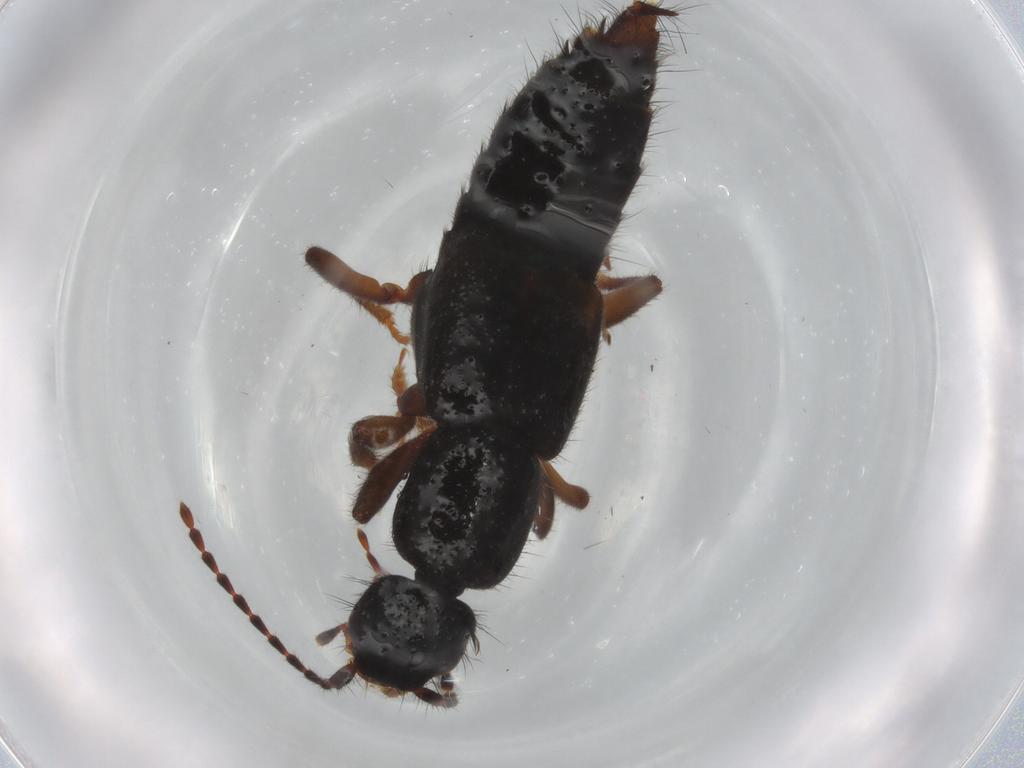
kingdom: Animalia
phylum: Arthropoda
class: Insecta
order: Coleoptera
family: Staphylinidae
